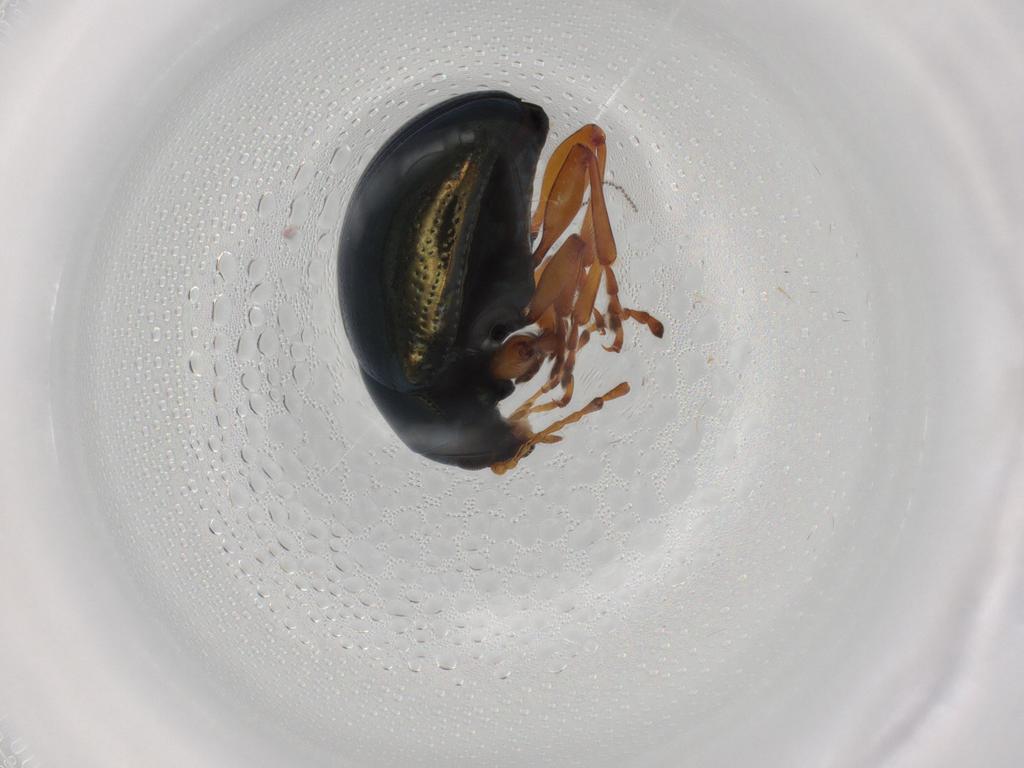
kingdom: Animalia
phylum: Arthropoda
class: Insecta
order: Coleoptera
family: Chrysomelidae
